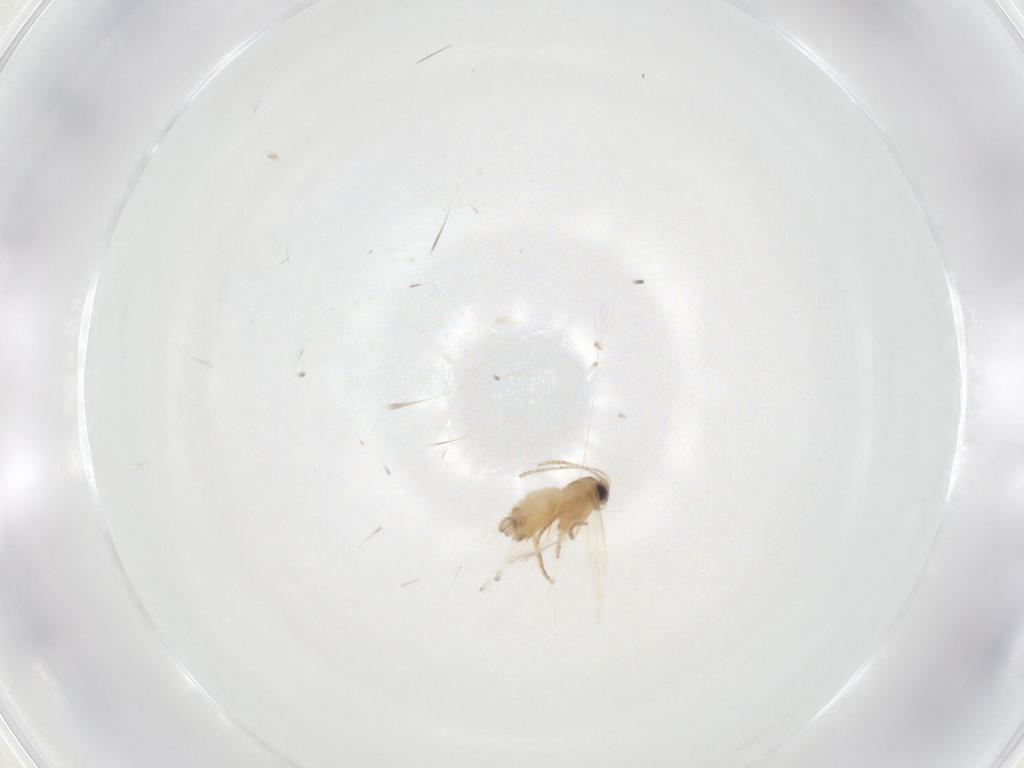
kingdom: Animalia
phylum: Arthropoda
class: Insecta
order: Lepidoptera
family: Nepticulidae
